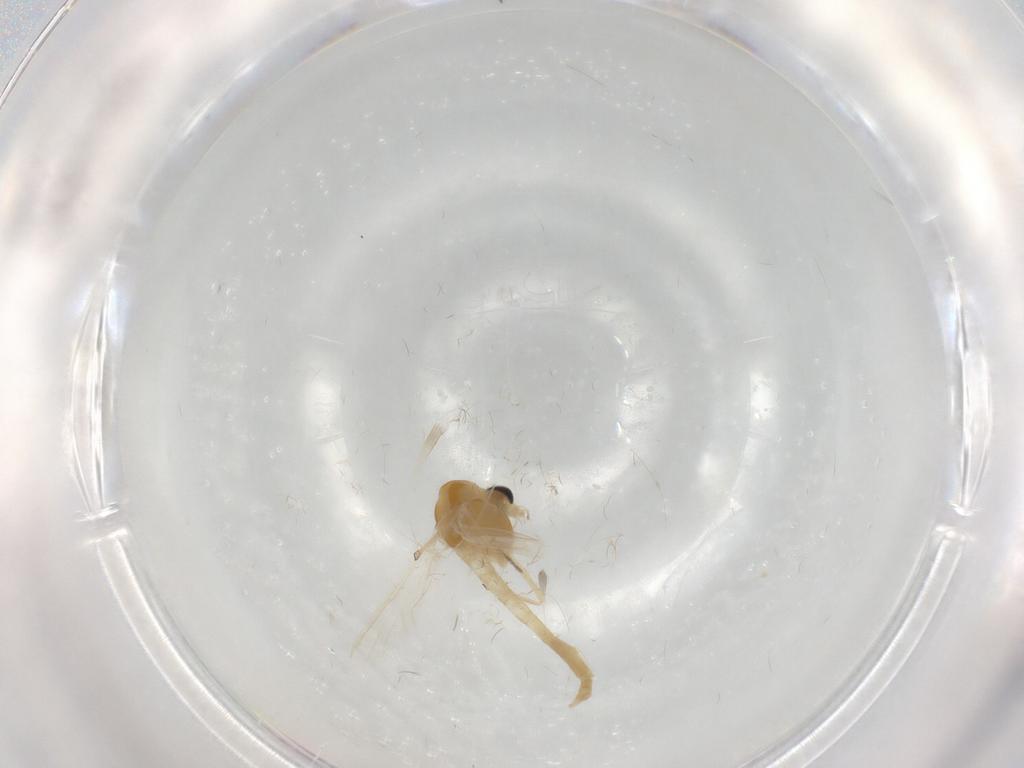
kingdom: Animalia
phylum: Arthropoda
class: Insecta
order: Diptera
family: Chironomidae
